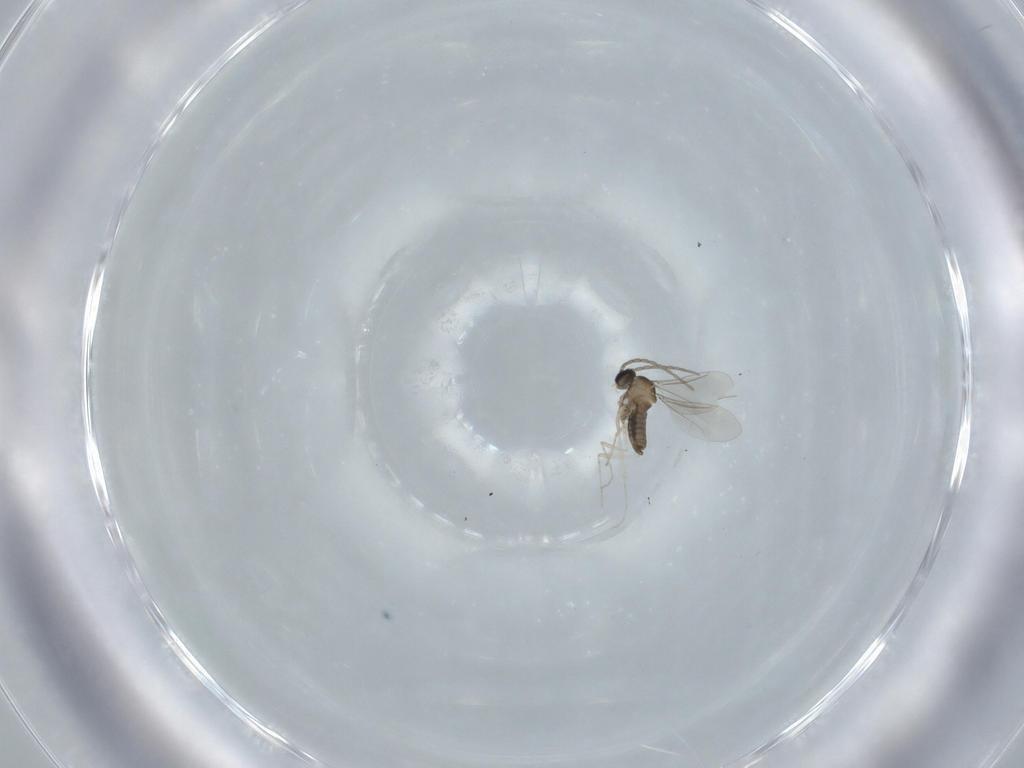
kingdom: Animalia
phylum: Arthropoda
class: Insecta
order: Diptera
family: Cecidomyiidae
